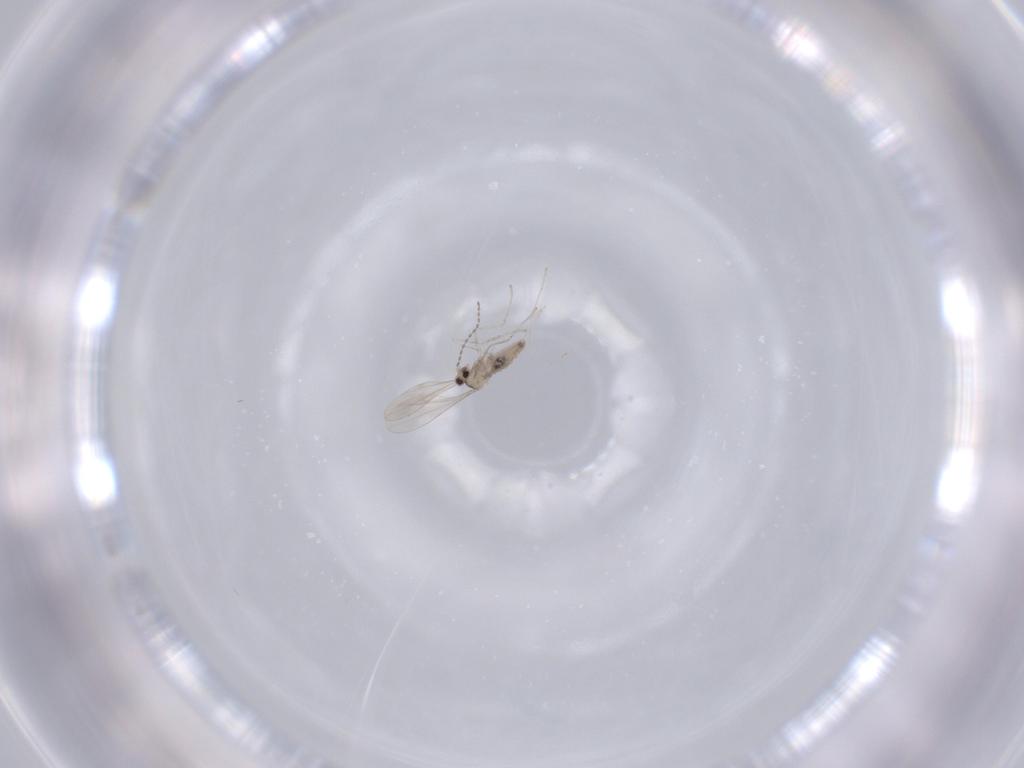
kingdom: Animalia
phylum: Arthropoda
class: Insecta
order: Diptera
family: Cecidomyiidae
